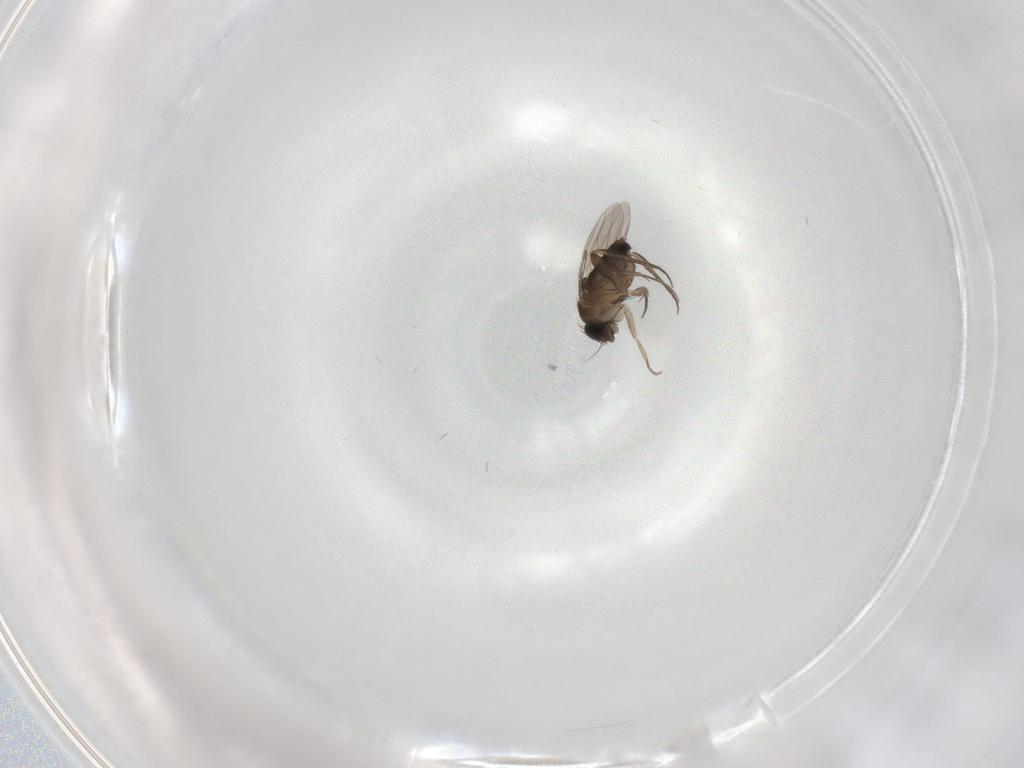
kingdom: Animalia
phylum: Arthropoda
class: Insecta
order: Diptera
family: Phoridae
